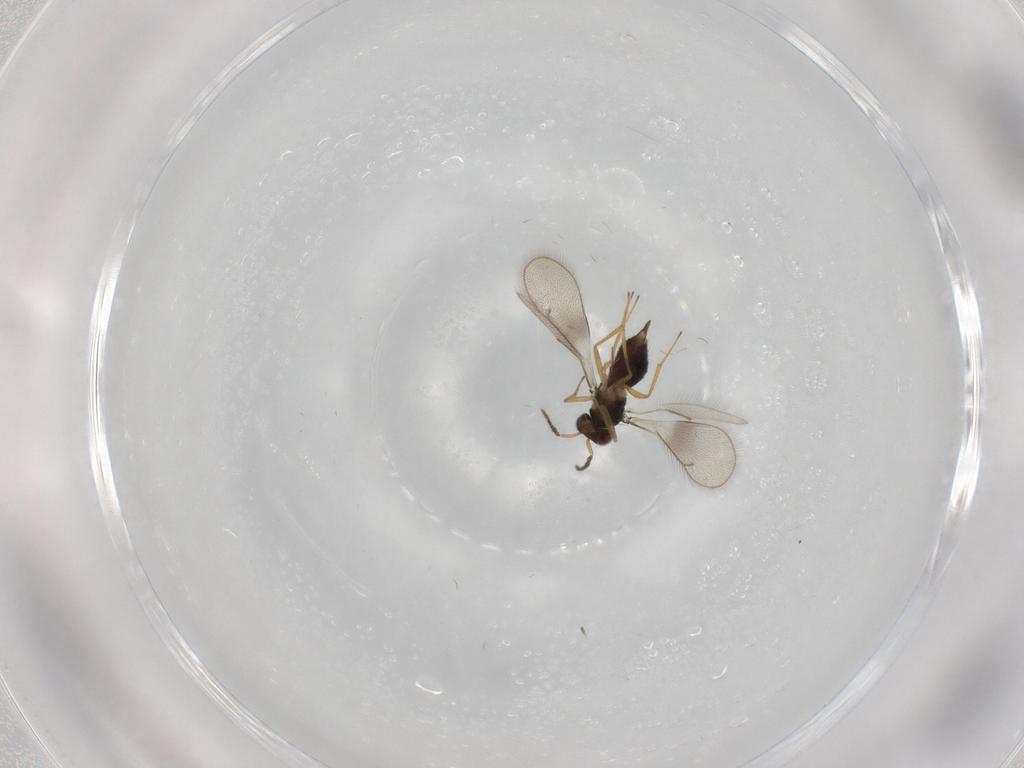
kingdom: Animalia
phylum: Arthropoda
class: Insecta
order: Hymenoptera
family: Eulophidae
